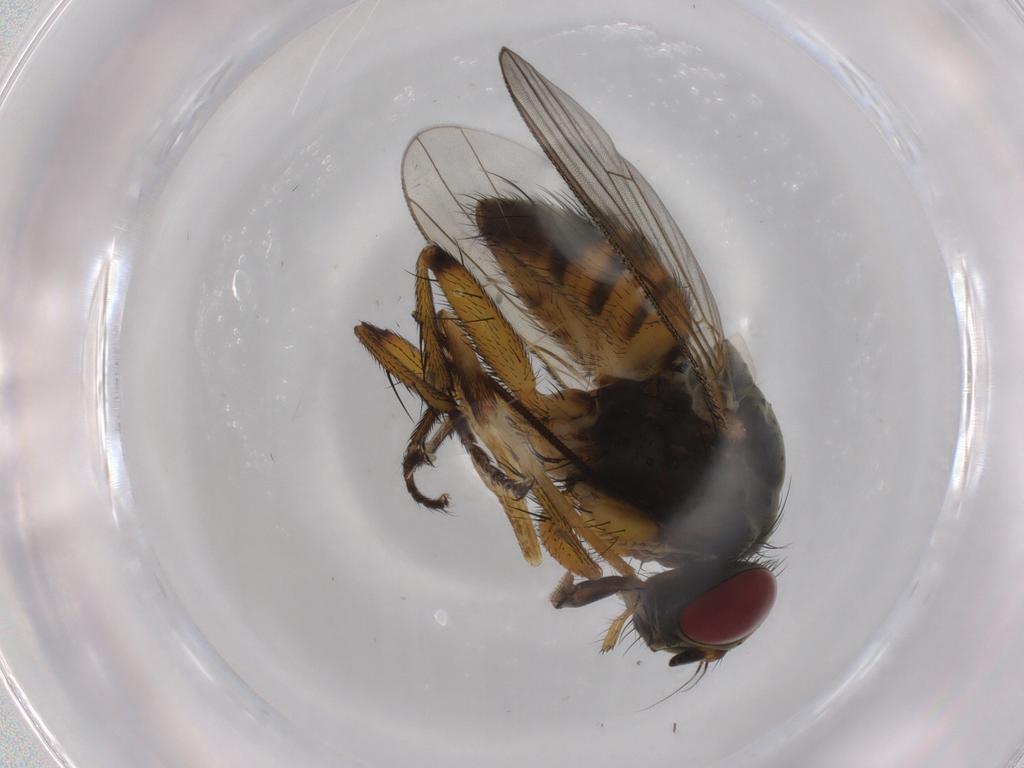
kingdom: Animalia
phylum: Arthropoda
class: Insecta
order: Diptera
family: Muscidae
